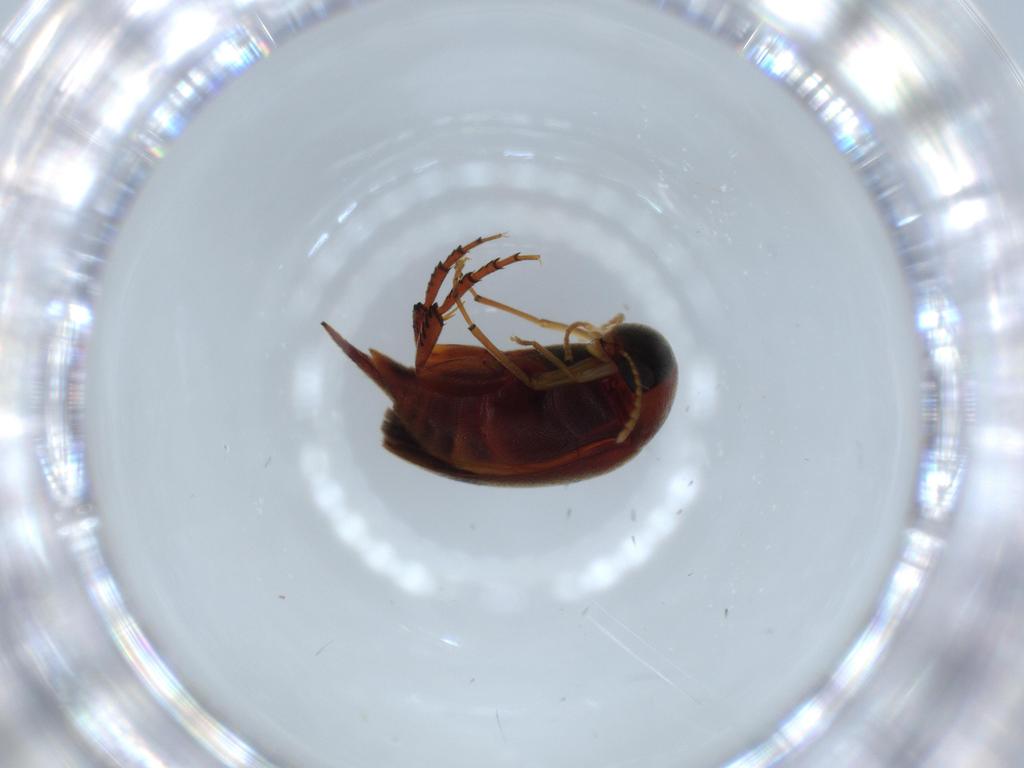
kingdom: Animalia
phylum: Arthropoda
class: Insecta
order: Coleoptera
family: Mordellidae
